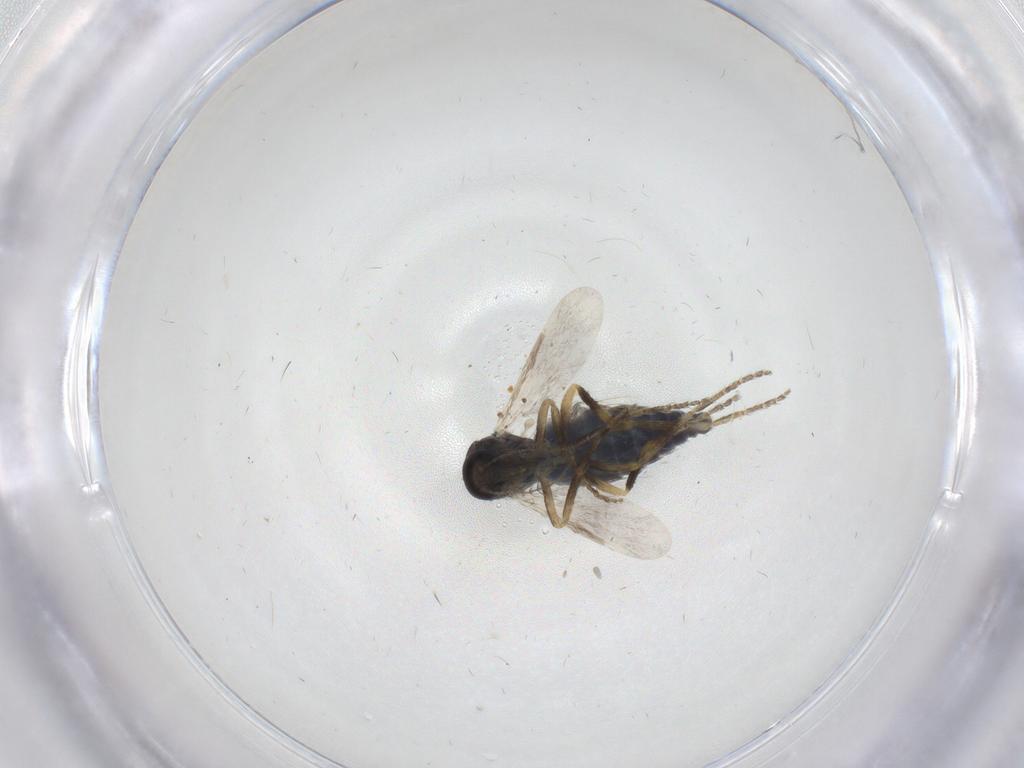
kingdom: Animalia
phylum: Arthropoda
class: Insecta
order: Diptera
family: Ceratopogonidae
